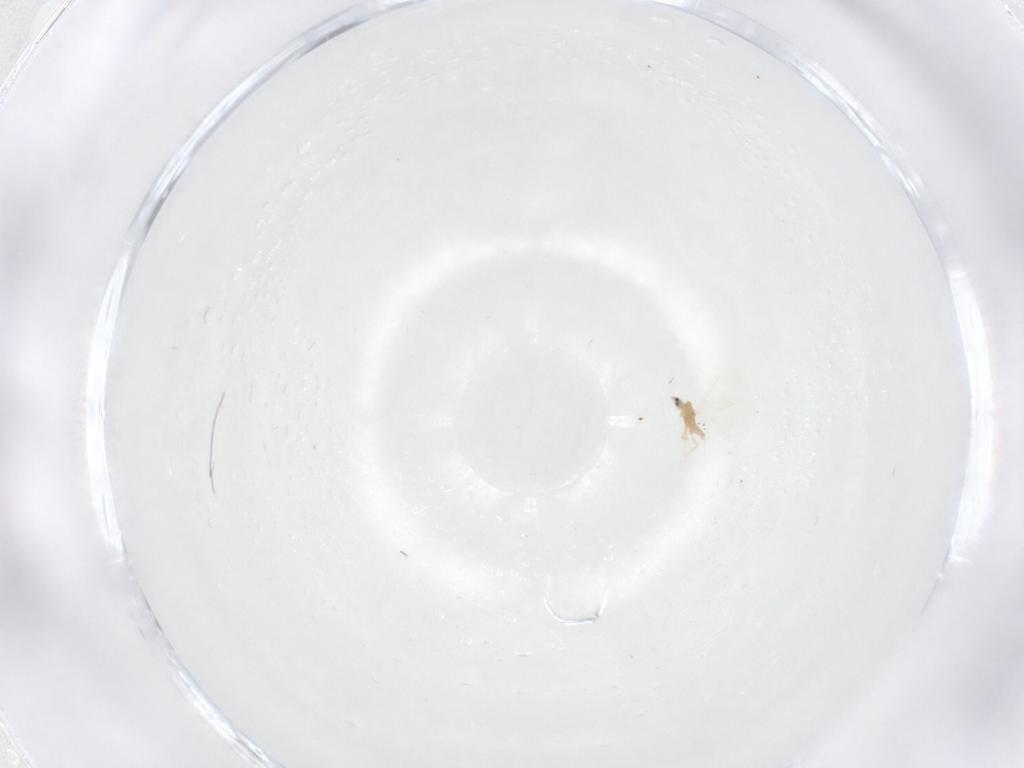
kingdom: Animalia
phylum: Arthropoda
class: Insecta
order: Hemiptera
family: Diaspididae
